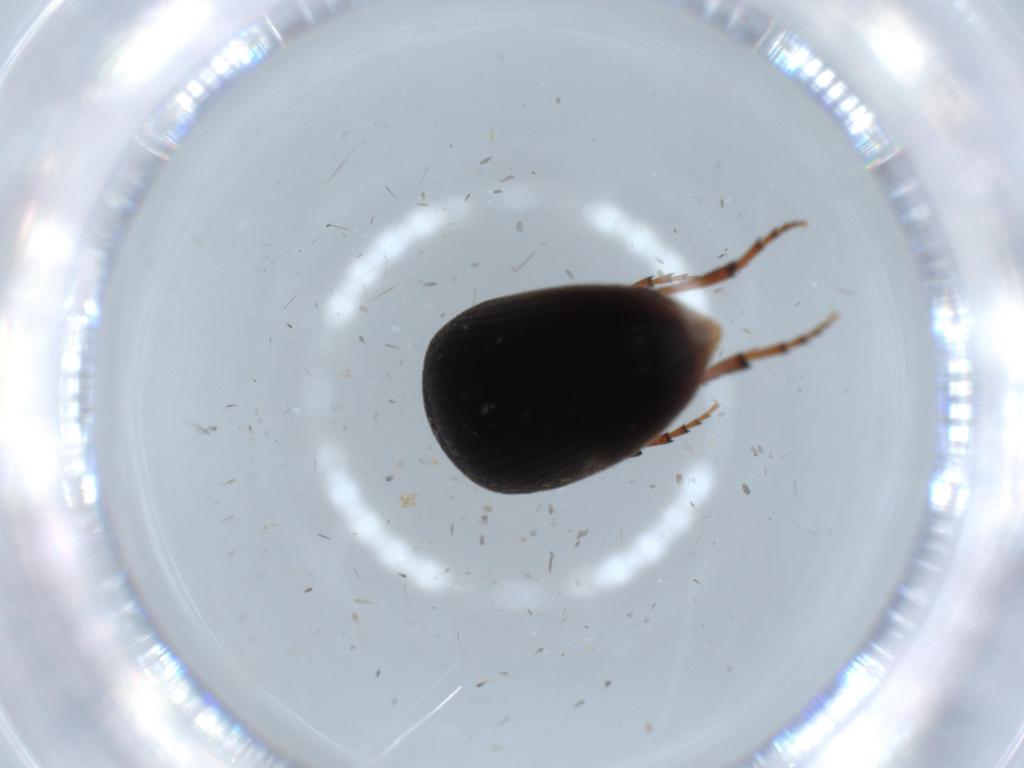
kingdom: Animalia
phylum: Arthropoda
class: Insecta
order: Coleoptera
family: Eucinetidae
